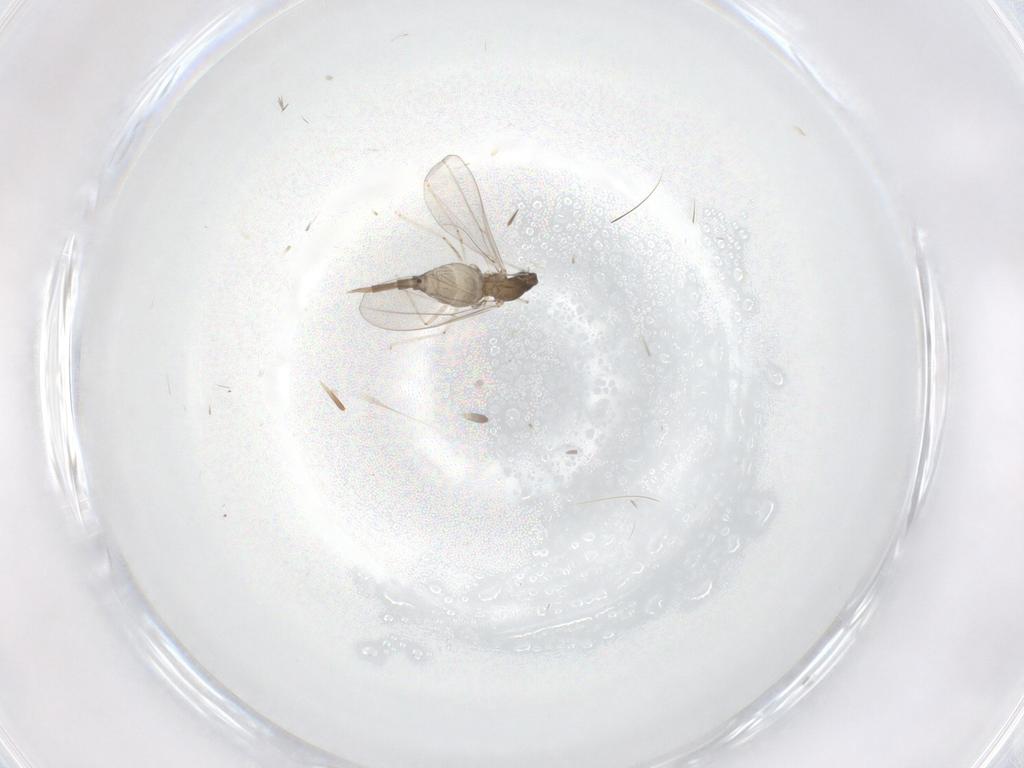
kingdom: Animalia
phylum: Arthropoda
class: Insecta
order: Diptera
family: Cecidomyiidae
